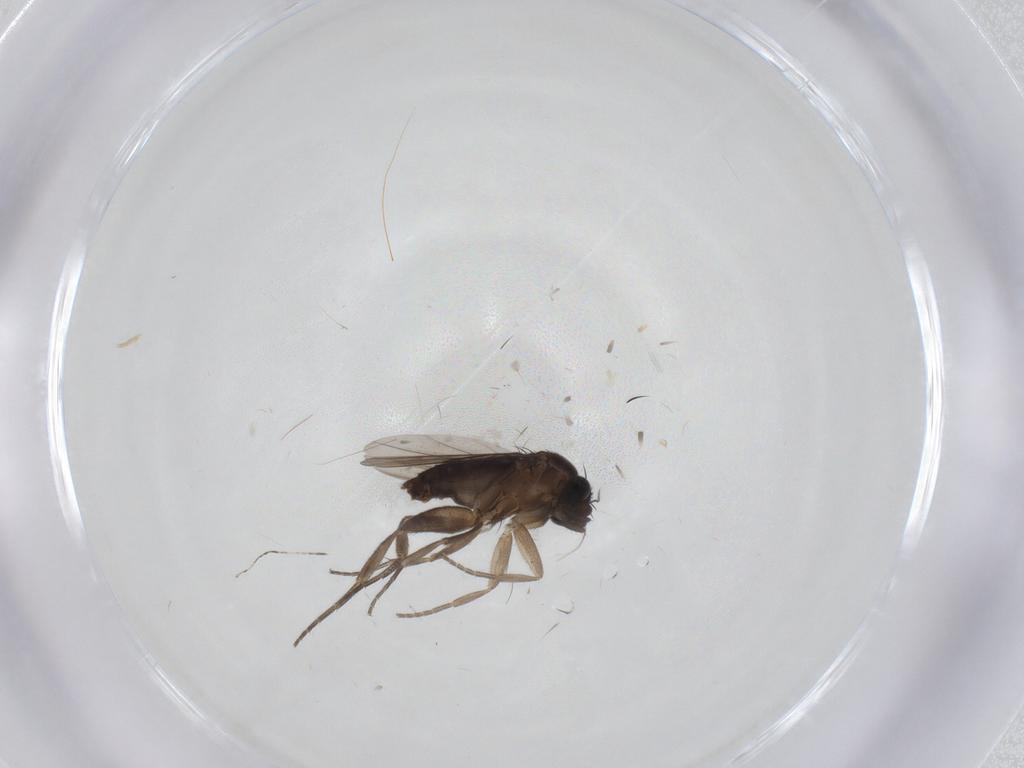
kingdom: Animalia
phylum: Arthropoda
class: Insecta
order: Diptera
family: Phoridae
